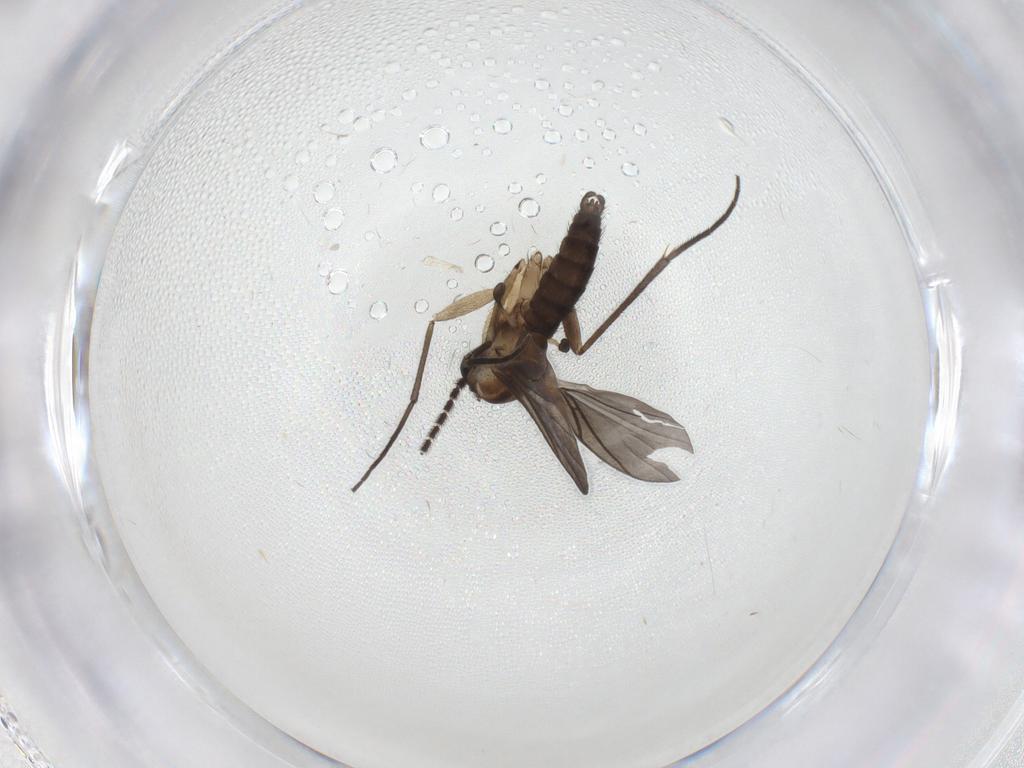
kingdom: Animalia
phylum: Arthropoda
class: Insecta
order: Diptera
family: Sciaridae
